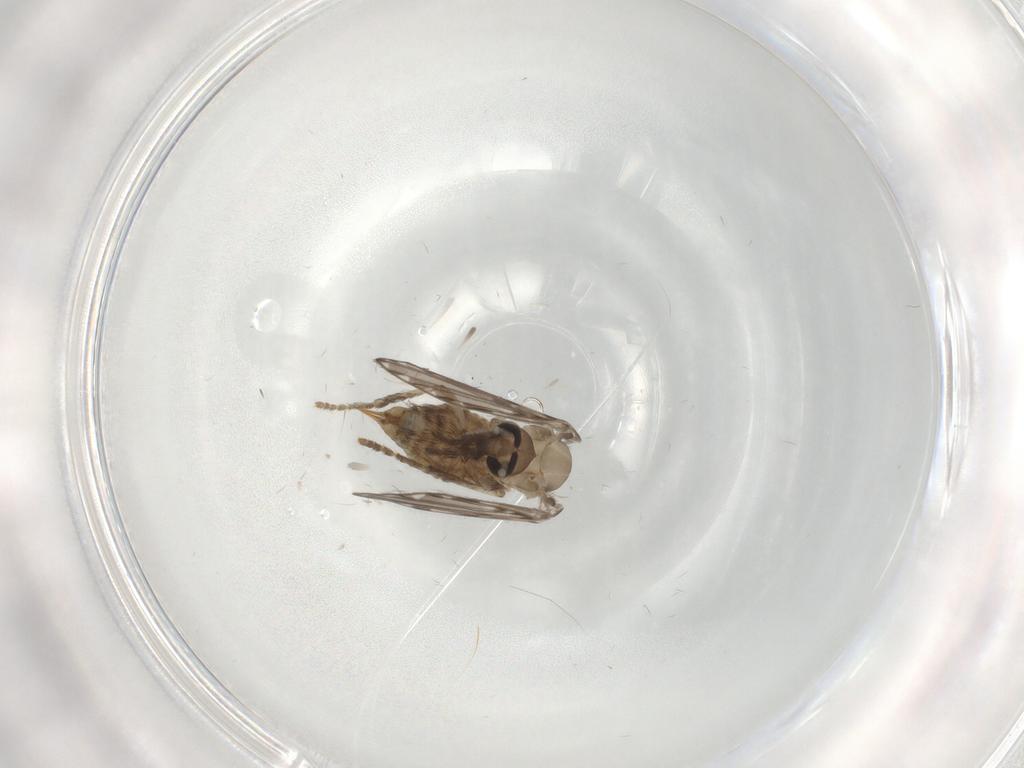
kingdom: Animalia
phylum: Arthropoda
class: Insecta
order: Diptera
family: Psychodidae
